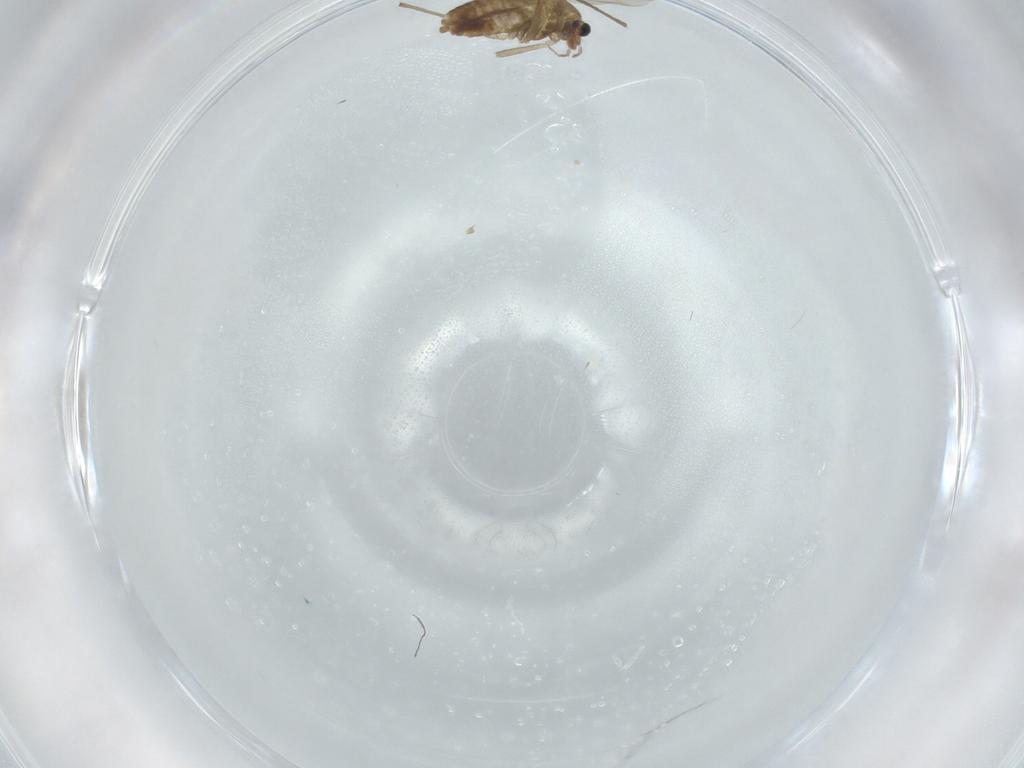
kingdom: Animalia
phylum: Arthropoda
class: Insecta
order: Diptera
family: Chironomidae
